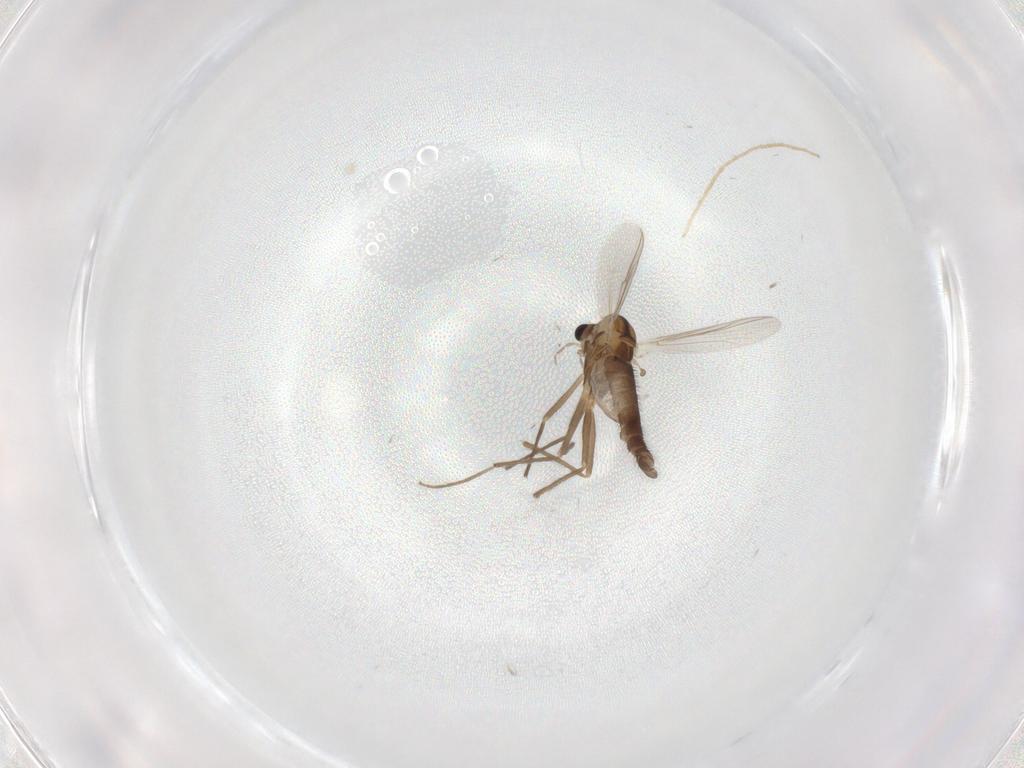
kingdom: Animalia
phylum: Arthropoda
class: Insecta
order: Diptera
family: Chironomidae
